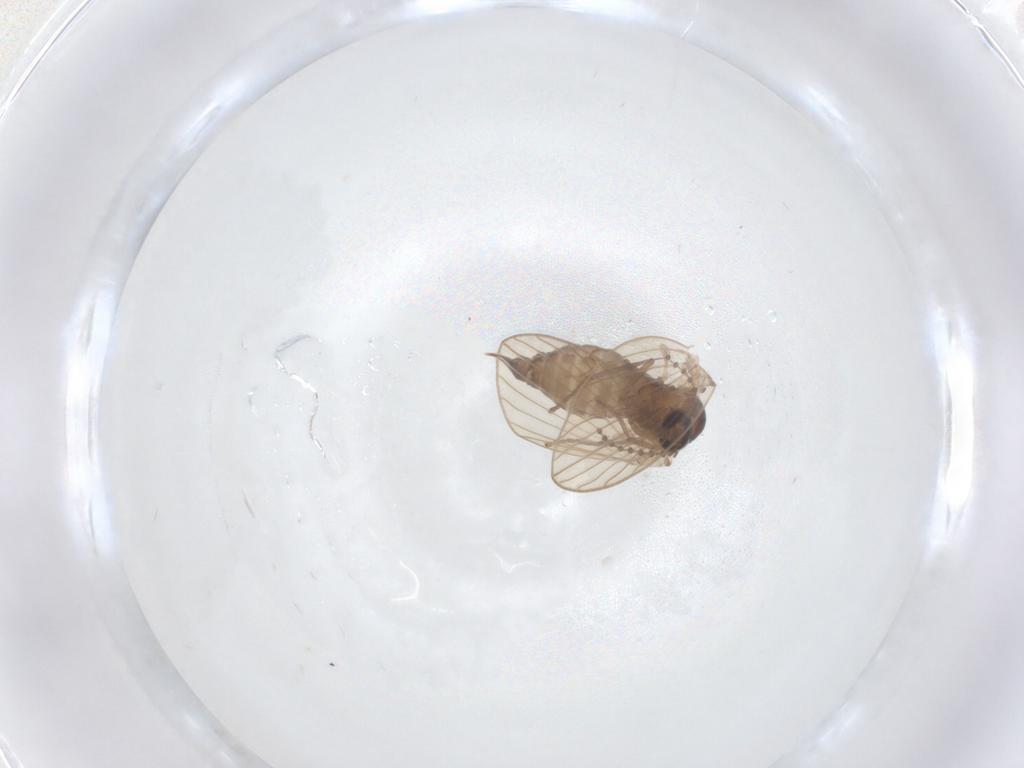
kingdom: Animalia
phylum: Arthropoda
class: Insecta
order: Diptera
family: Psychodidae
